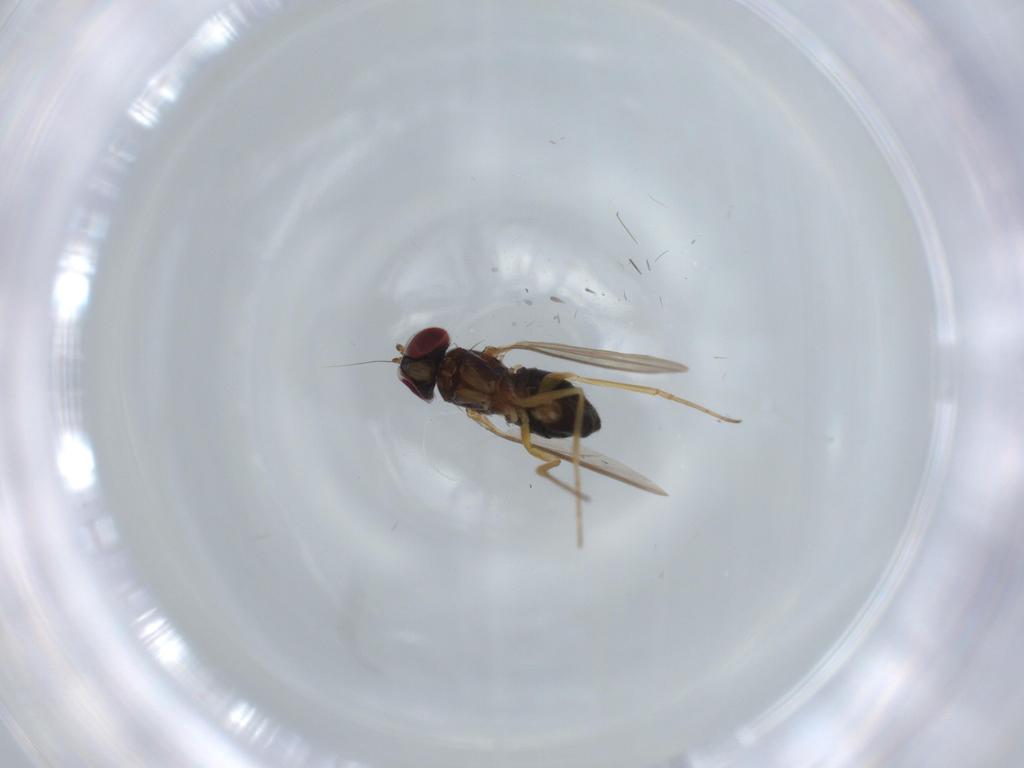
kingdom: Animalia
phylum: Arthropoda
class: Insecta
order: Diptera
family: Dolichopodidae
